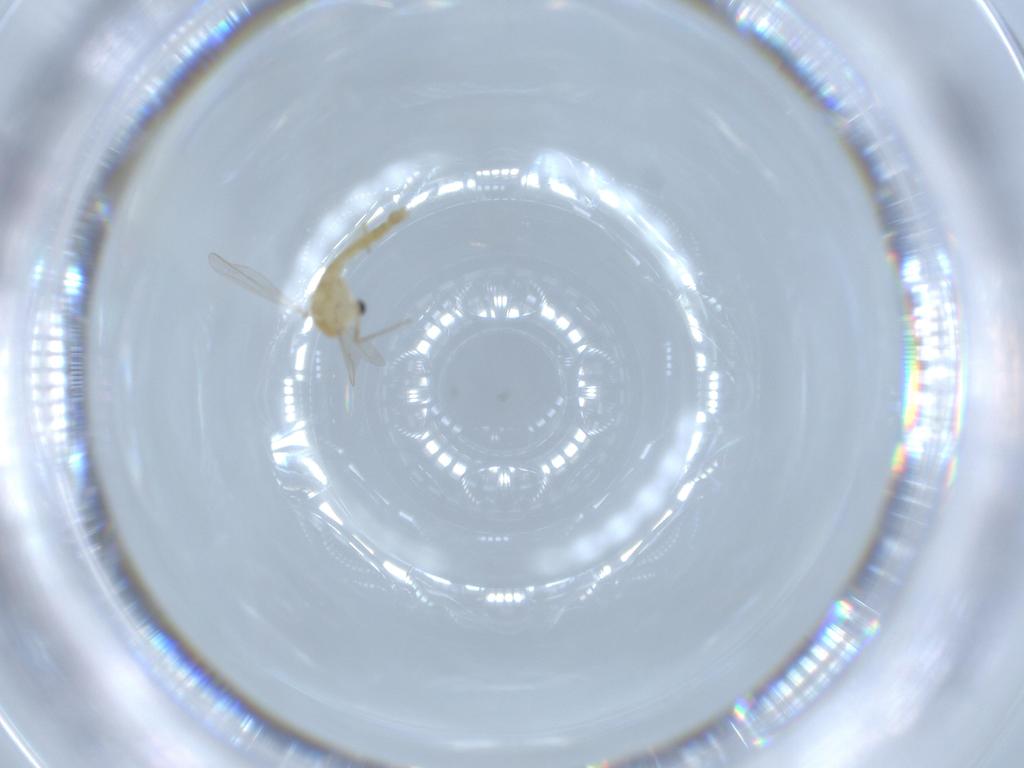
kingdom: Animalia
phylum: Arthropoda
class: Insecta
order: Diptera
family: Chironomidae
